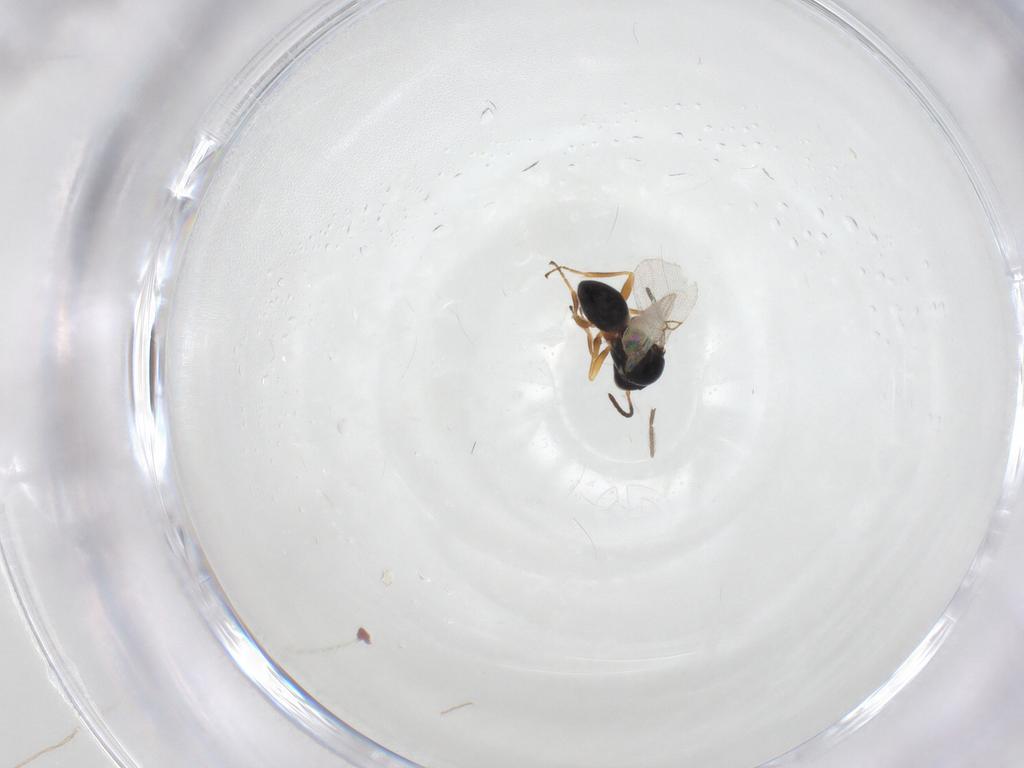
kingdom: Animalia
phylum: Arthropoda
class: Insecta
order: Hymenoptera
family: Figitidae
